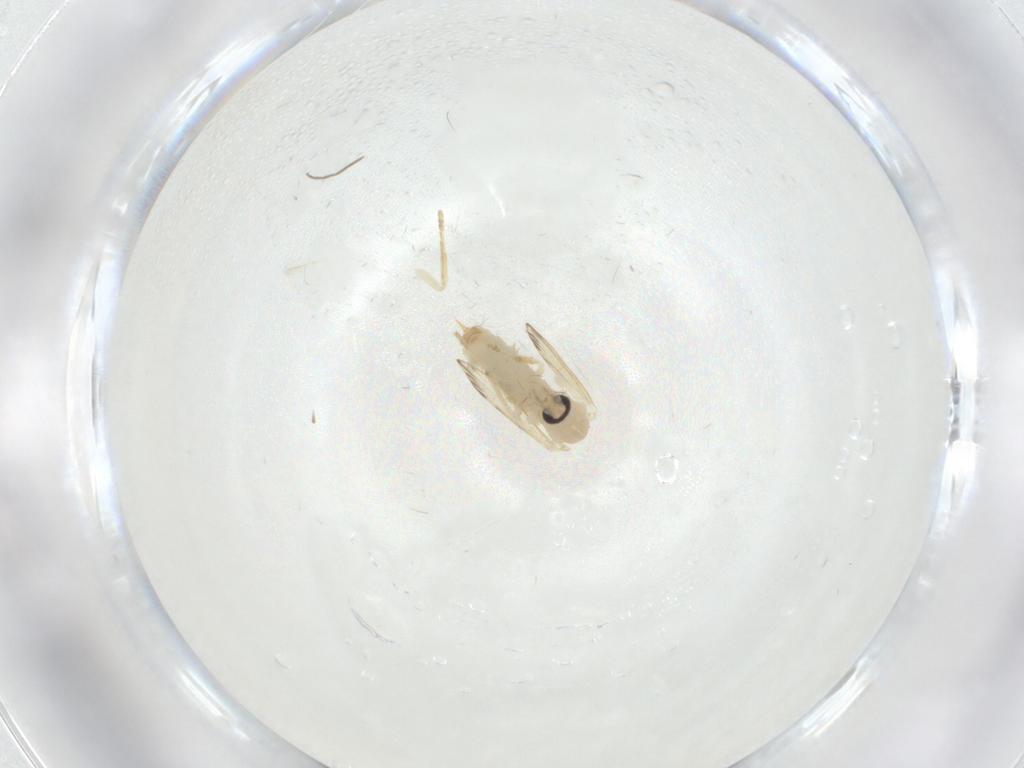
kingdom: Animalia
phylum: Arthropoda
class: Insecta
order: Diptera
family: Psychodidae
